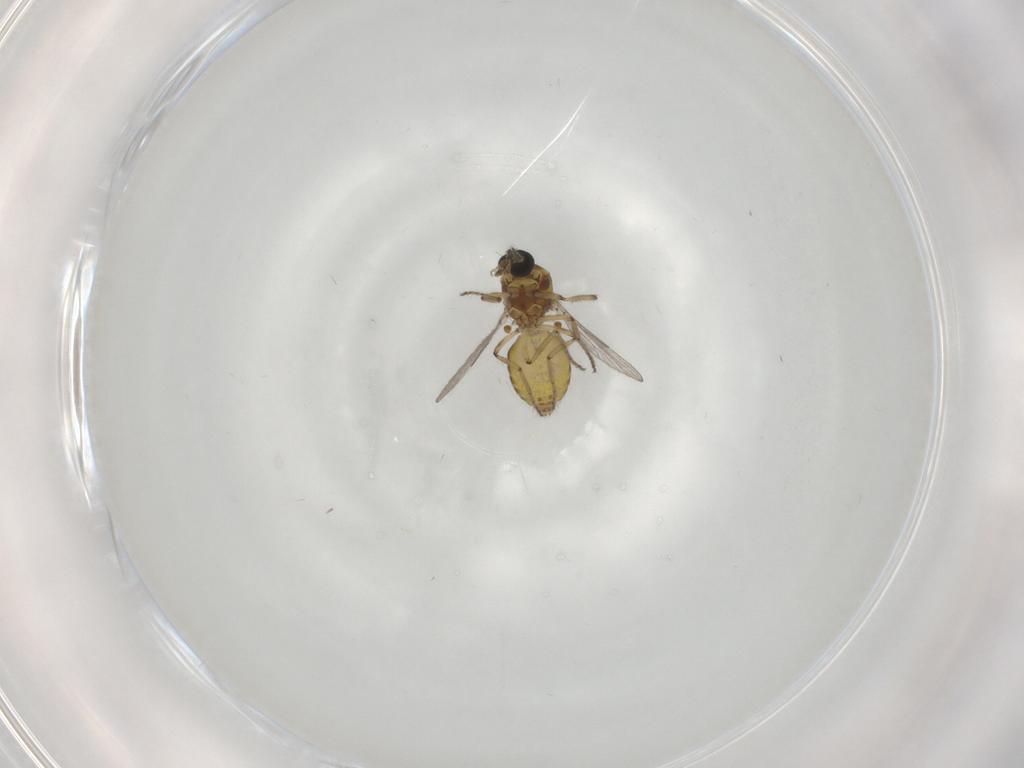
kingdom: Animalia
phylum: Arthropoda
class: Insecta
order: Diptera
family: Ceratopogonidae
